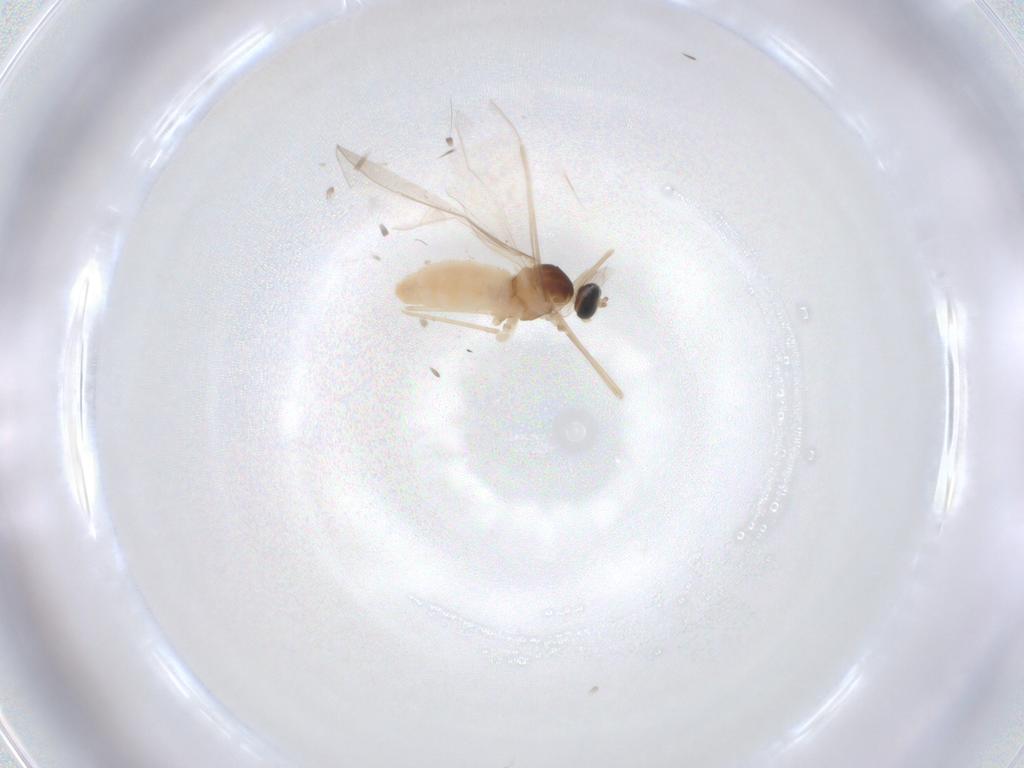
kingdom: Animalia
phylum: Arthropoda
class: Insecta
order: Diptera
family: Cecidomyiidae
